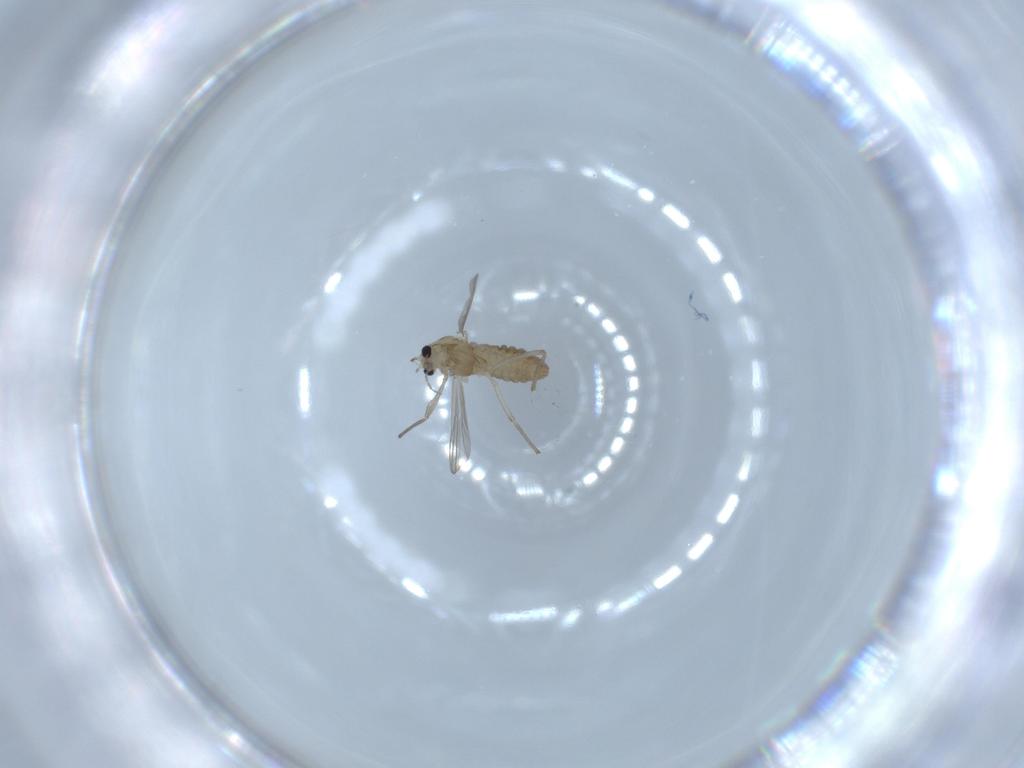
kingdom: Animalia
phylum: Arthropoda
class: Insecta
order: Diptera
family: Chironomidae
